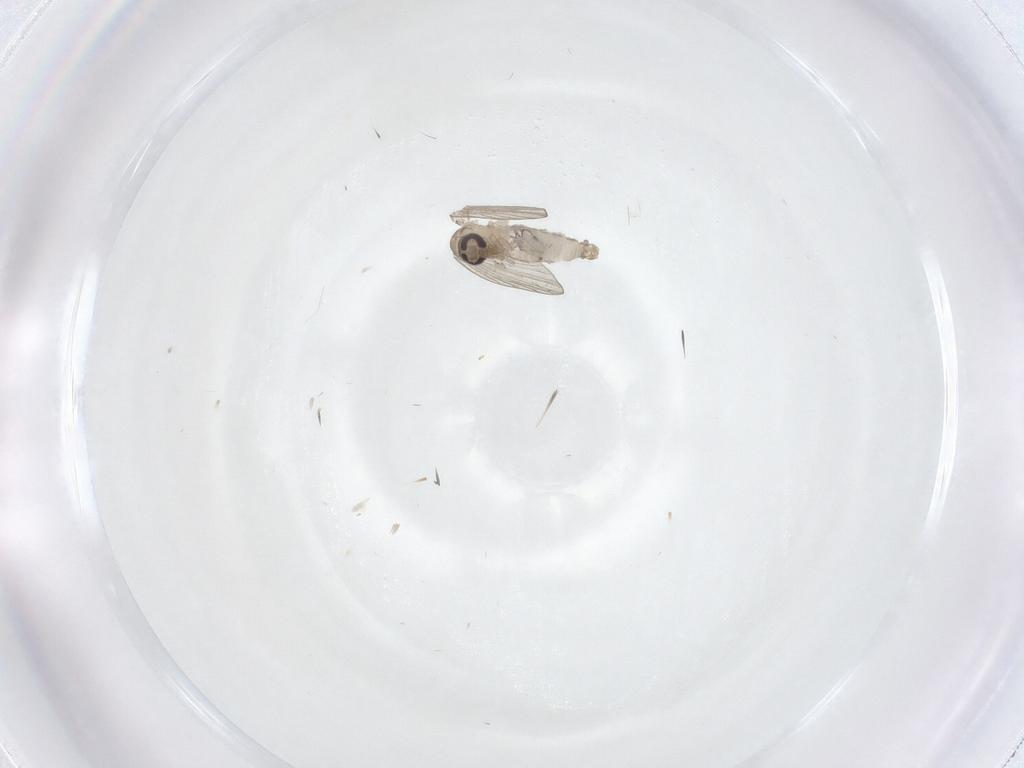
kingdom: Animalia
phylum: Arthropoda
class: Insecta
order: Diptera
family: Psychodidae
